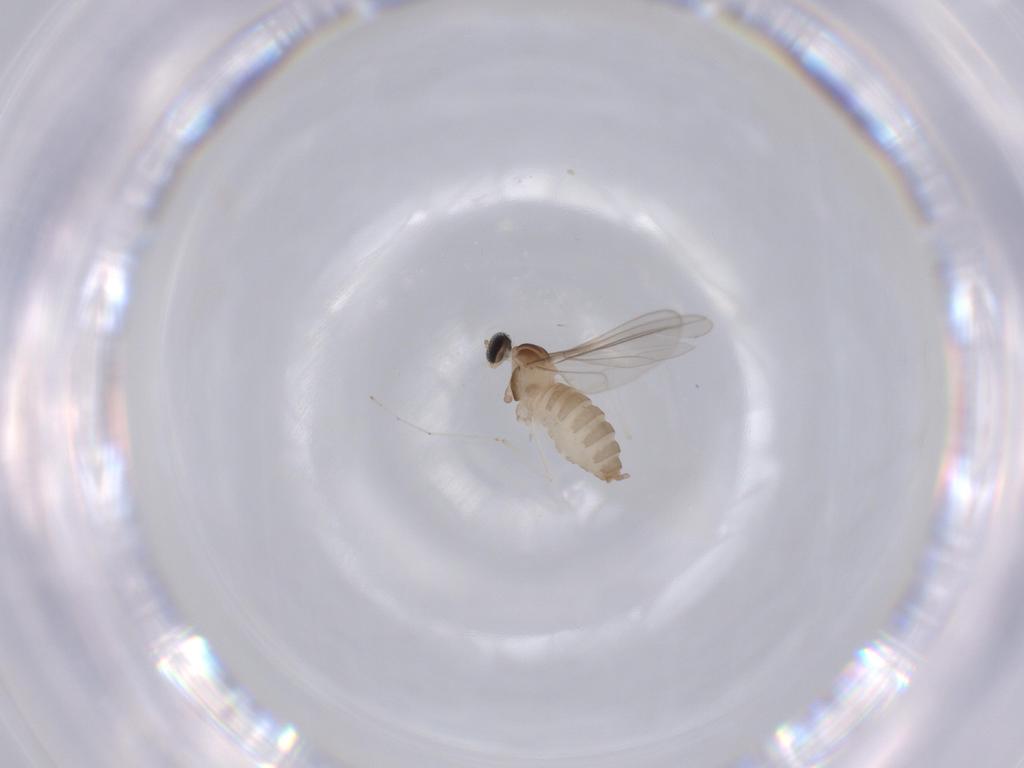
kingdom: Animalia
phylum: Arthropoda
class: Insecta
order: Diptera
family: Cecidomyiidae
